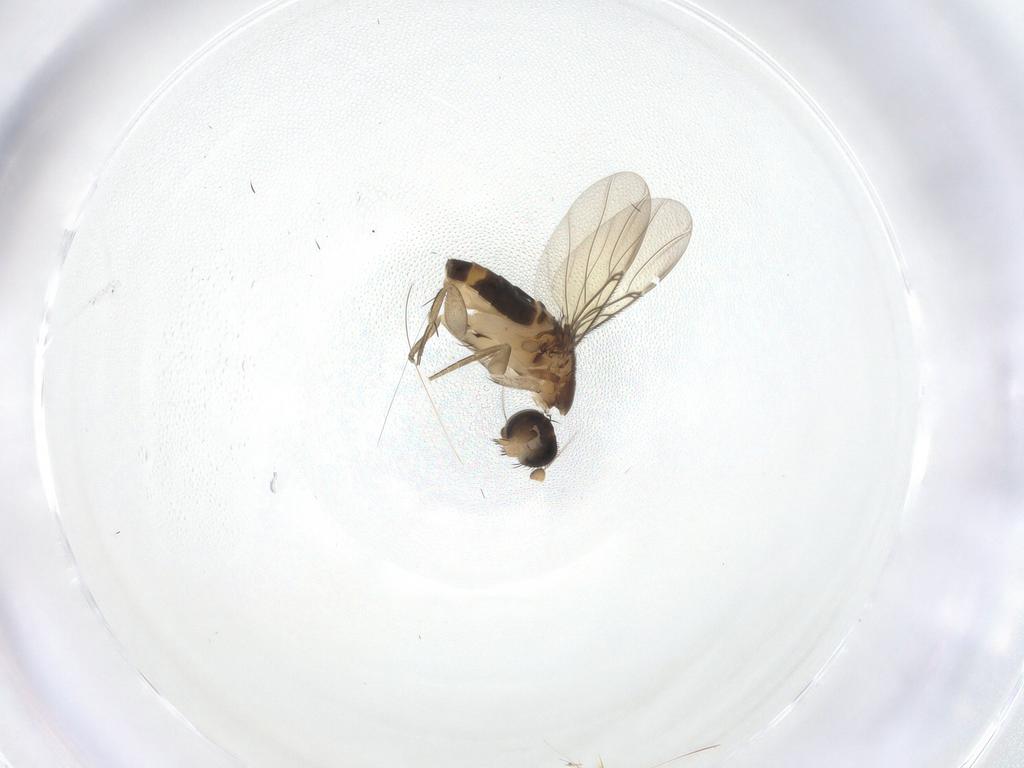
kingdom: Animalia
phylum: Arthropoda
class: Insecta
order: Diptera
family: Phoridae
